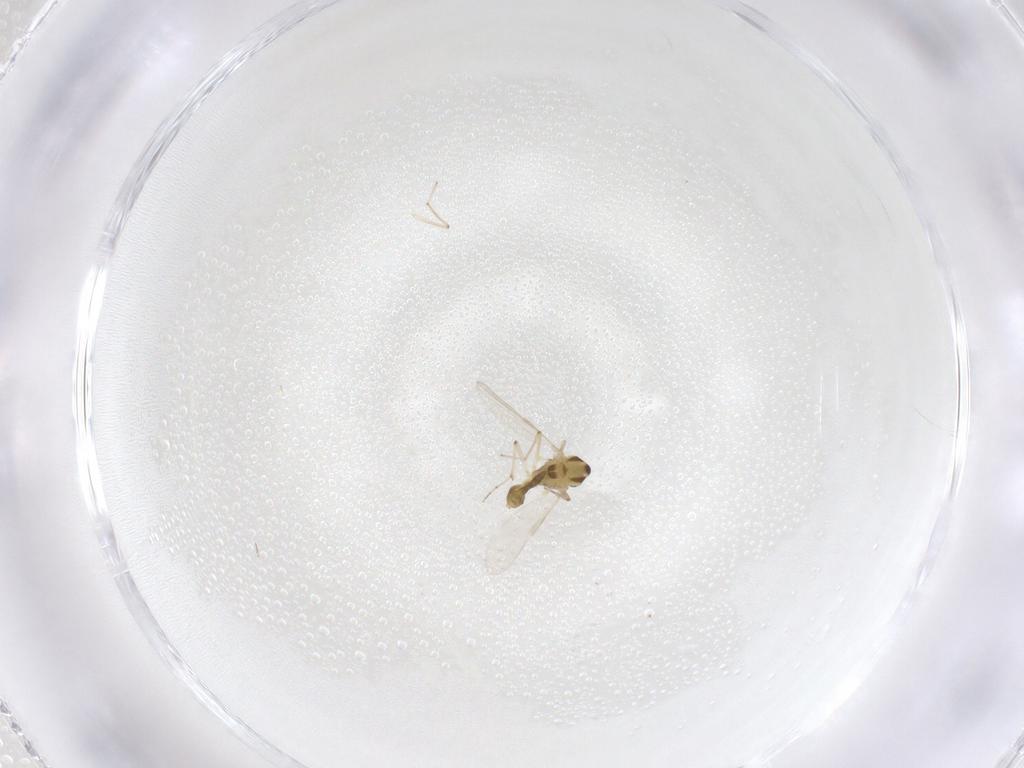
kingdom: Animalia
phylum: Arthropoda
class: Insecta
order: Diptera
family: Chironomidae
